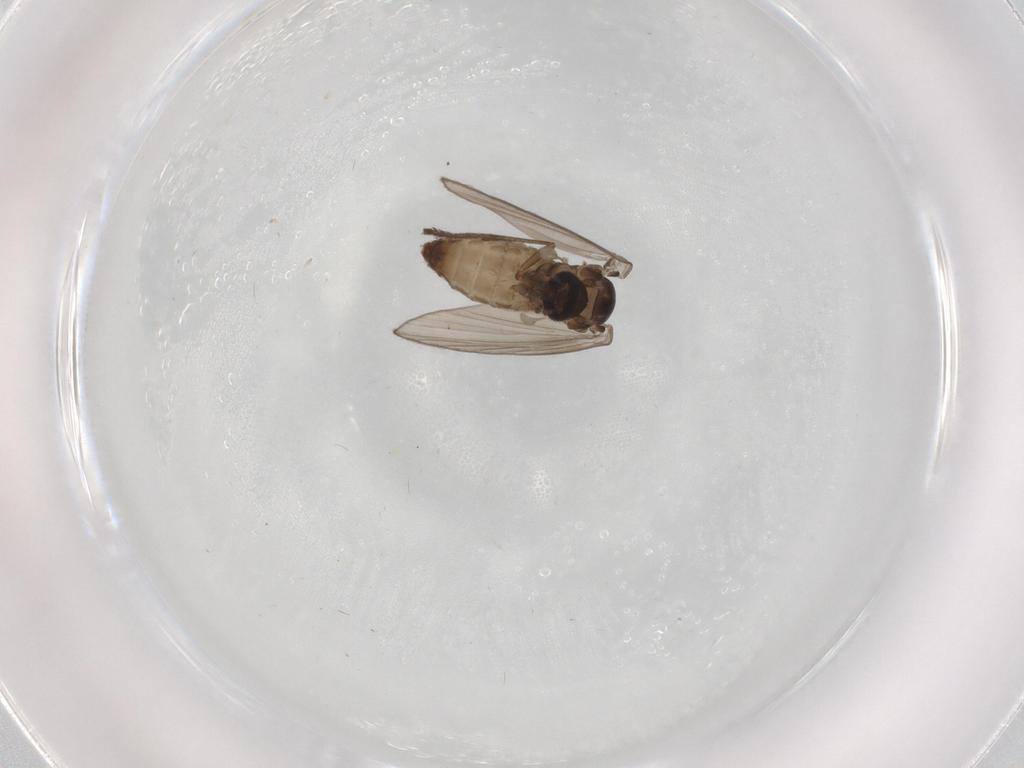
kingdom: Animalia
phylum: Arthropoda
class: Insecta
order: Diptera
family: Psychodidae
